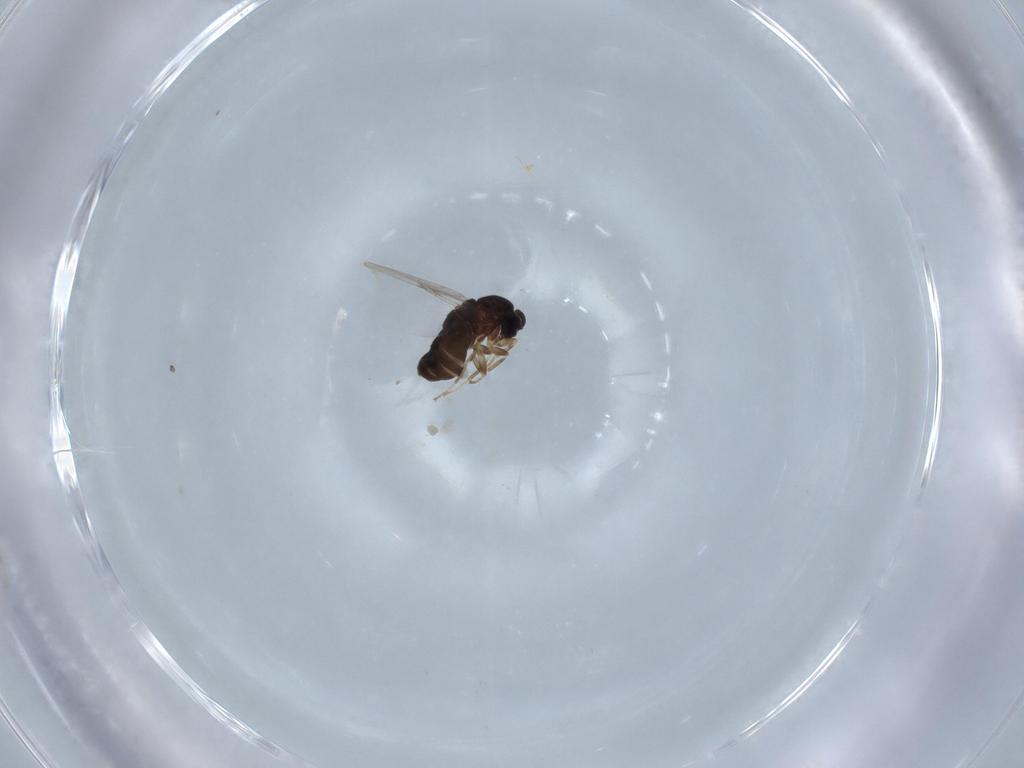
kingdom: Animalia
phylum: Arthropoda
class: Insecta
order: Diptera
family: Scatopsidae
